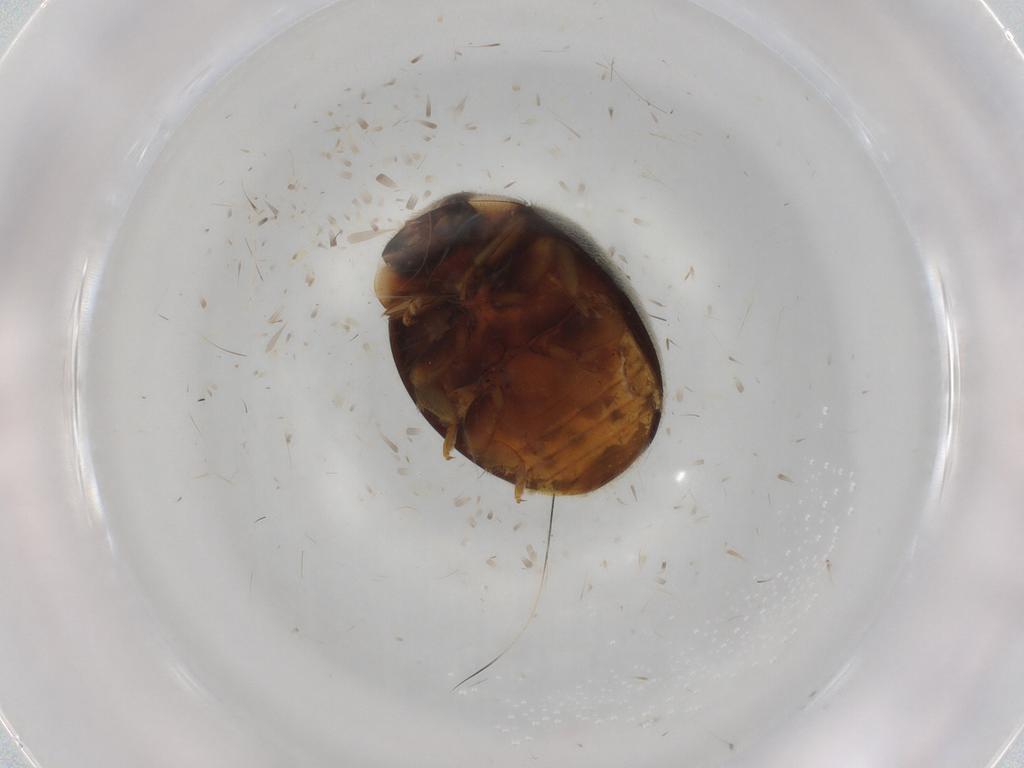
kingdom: Animalia
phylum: Arthropoda
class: Insecta
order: Coleoptera
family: Coccinellidae
